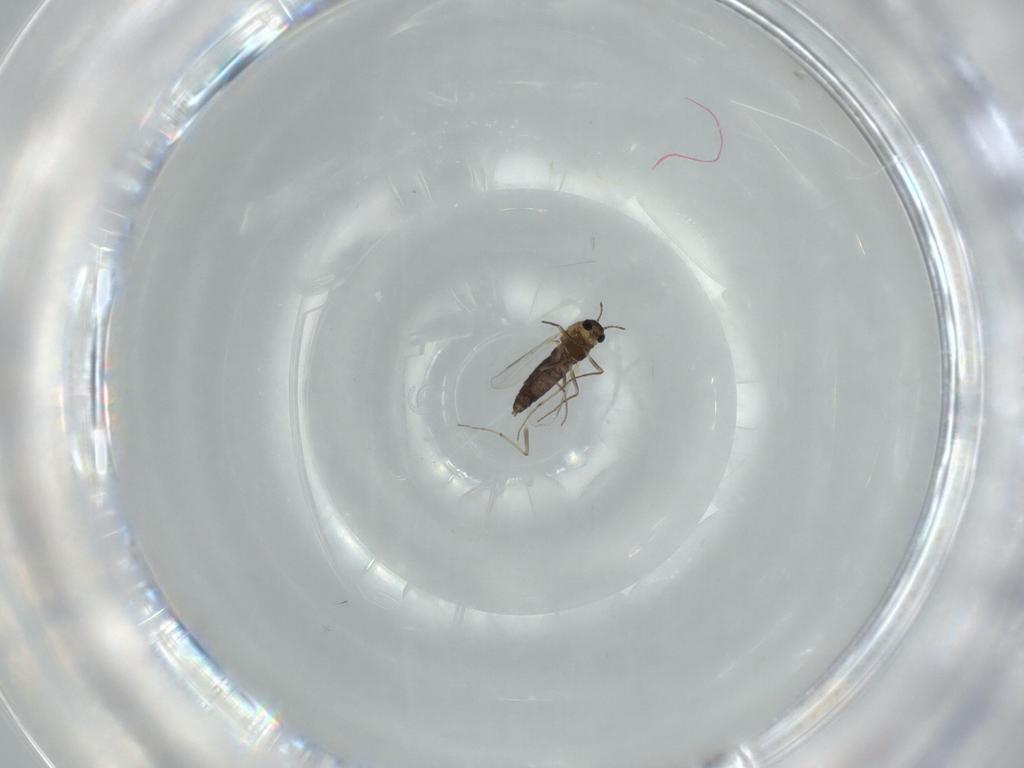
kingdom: Animalia
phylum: Arthropoda
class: Insecta
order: Diptera
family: Chironomidae
